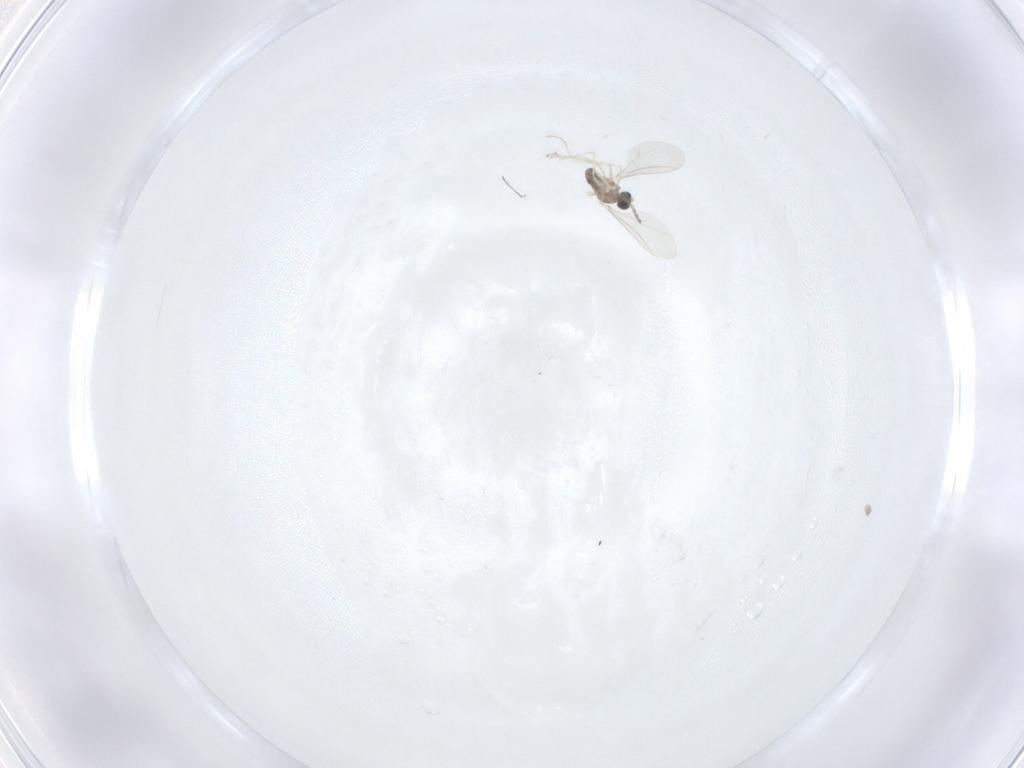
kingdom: Animalia
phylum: Arthropoda
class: Insecta
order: Diptera
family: Cecidomyiidae
